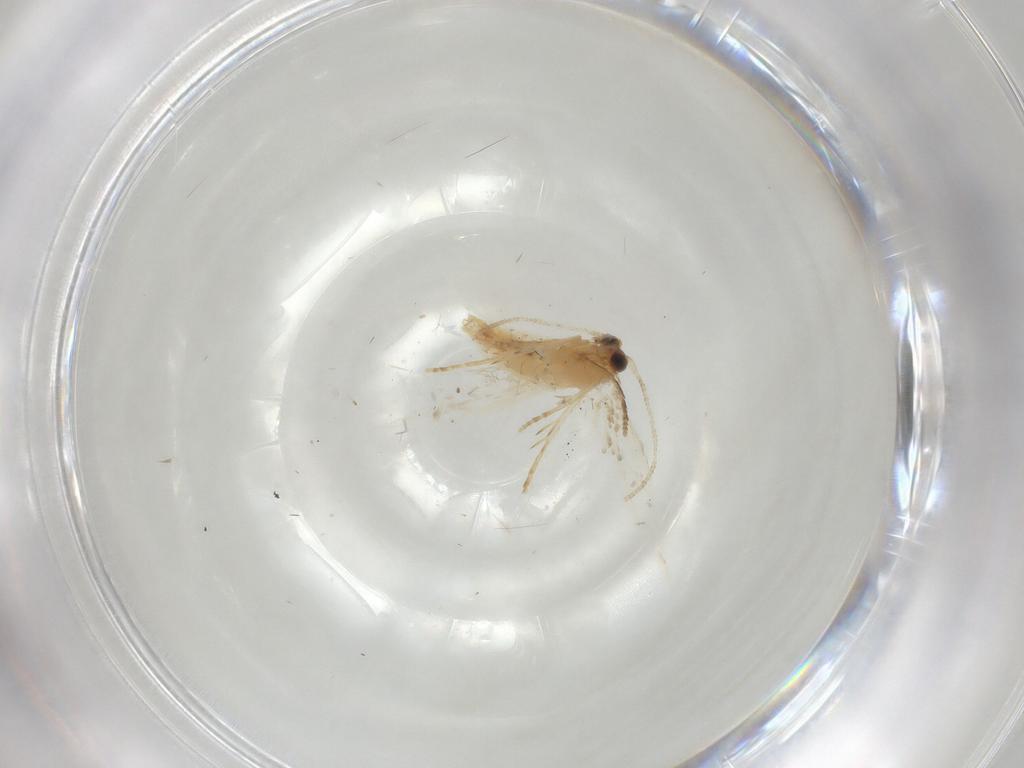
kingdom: Animalia
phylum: Arthropoda
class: Insecta
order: Lepidoptera
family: Nepticulidae
